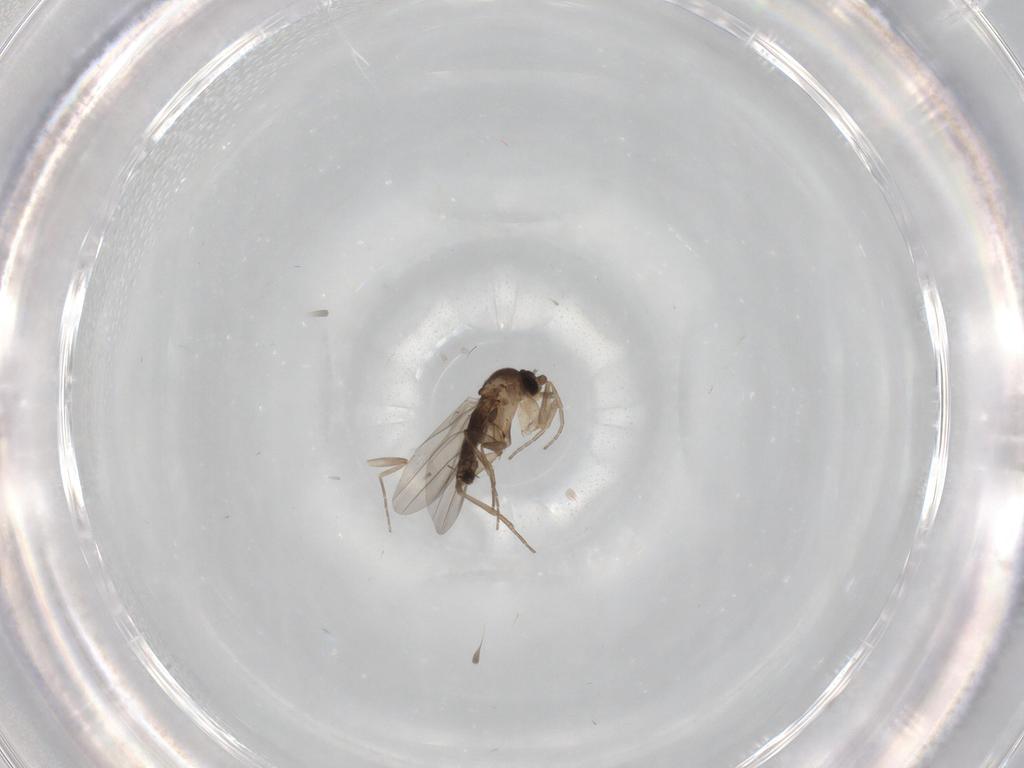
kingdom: Animalia
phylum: Arthropoda
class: Insecta
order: Diptera
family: Phoridae
